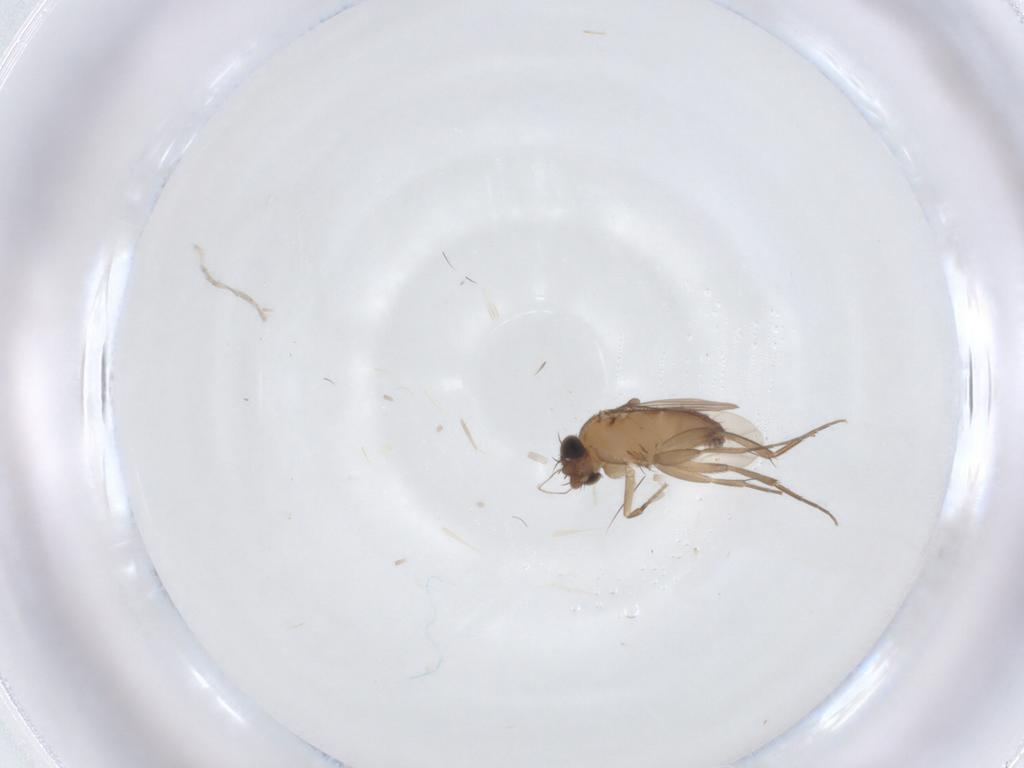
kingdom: Animalia
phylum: Arthropoda
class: Insecta
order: Diptera
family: Phoridae
